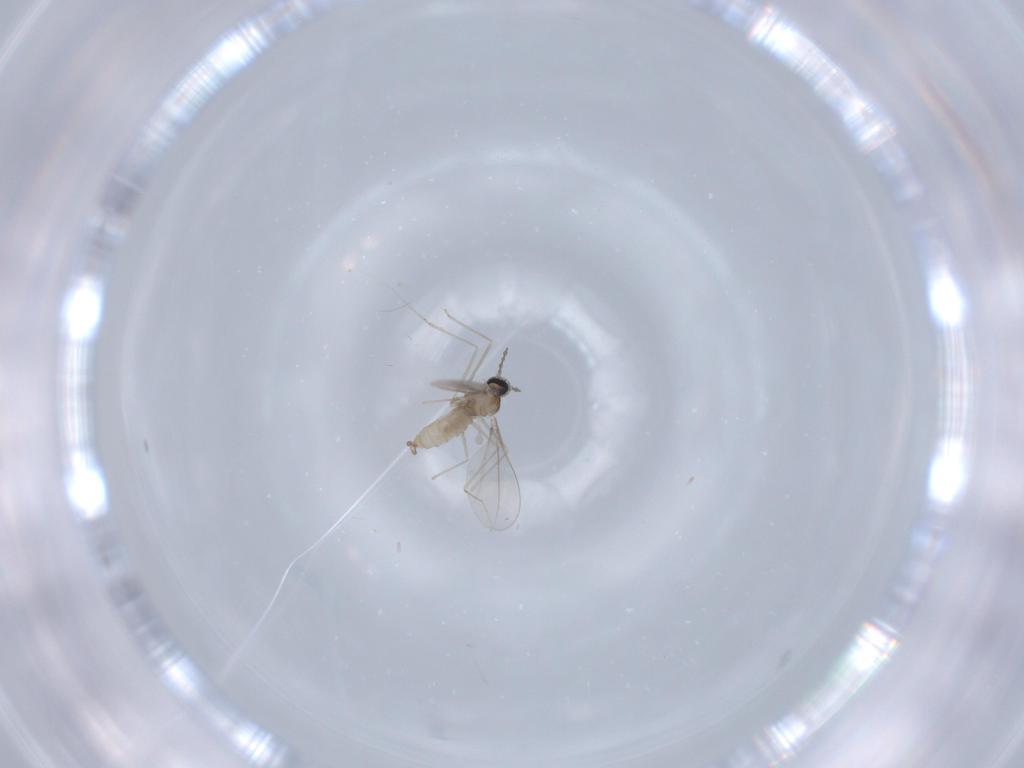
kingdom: Animalia
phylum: Arthropoda
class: Insecta
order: Diptera
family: Cecidomyiidae
